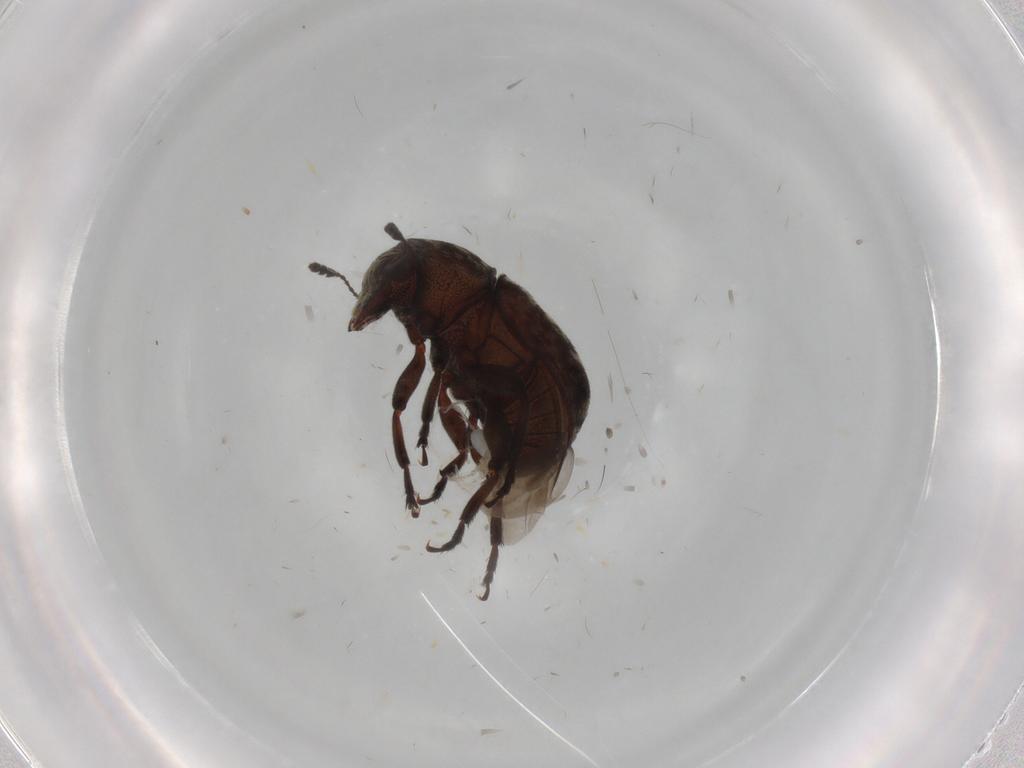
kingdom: Animalia
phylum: Arthropoda
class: Insecta
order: Coleoptera
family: Anthribidae
